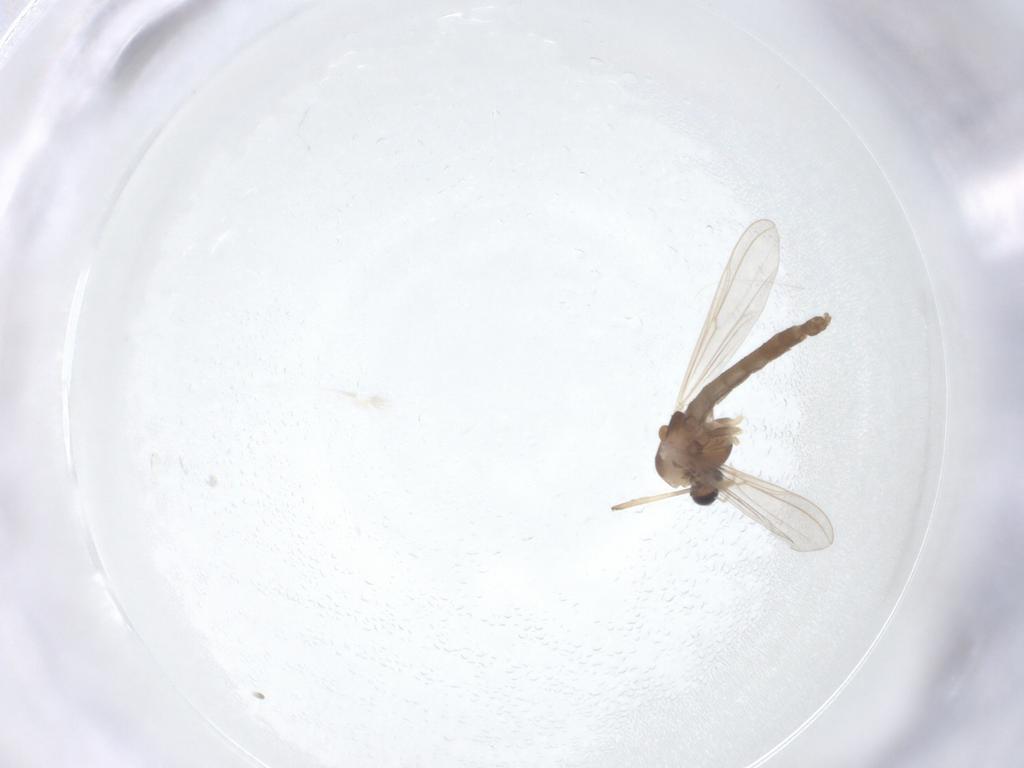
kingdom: Animalia
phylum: Arthropoda
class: Insecta
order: Diptera
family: Chironomidae
